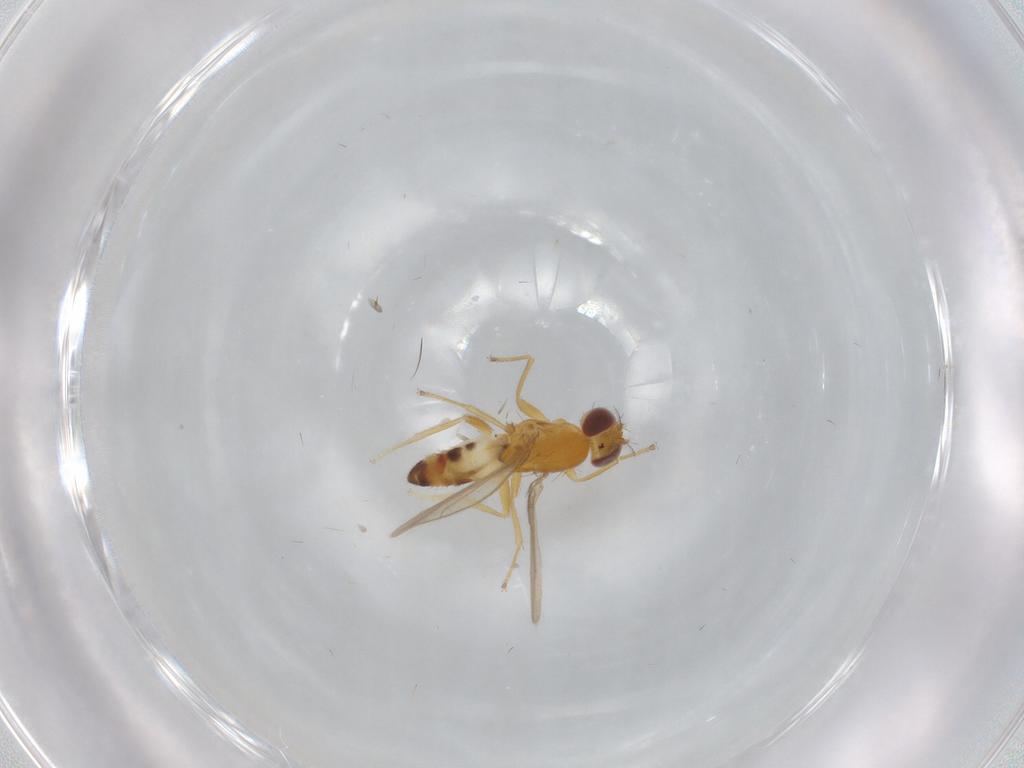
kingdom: Animalia
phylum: Arthropoda
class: Insecta
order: Diptera
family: Periscelididae
